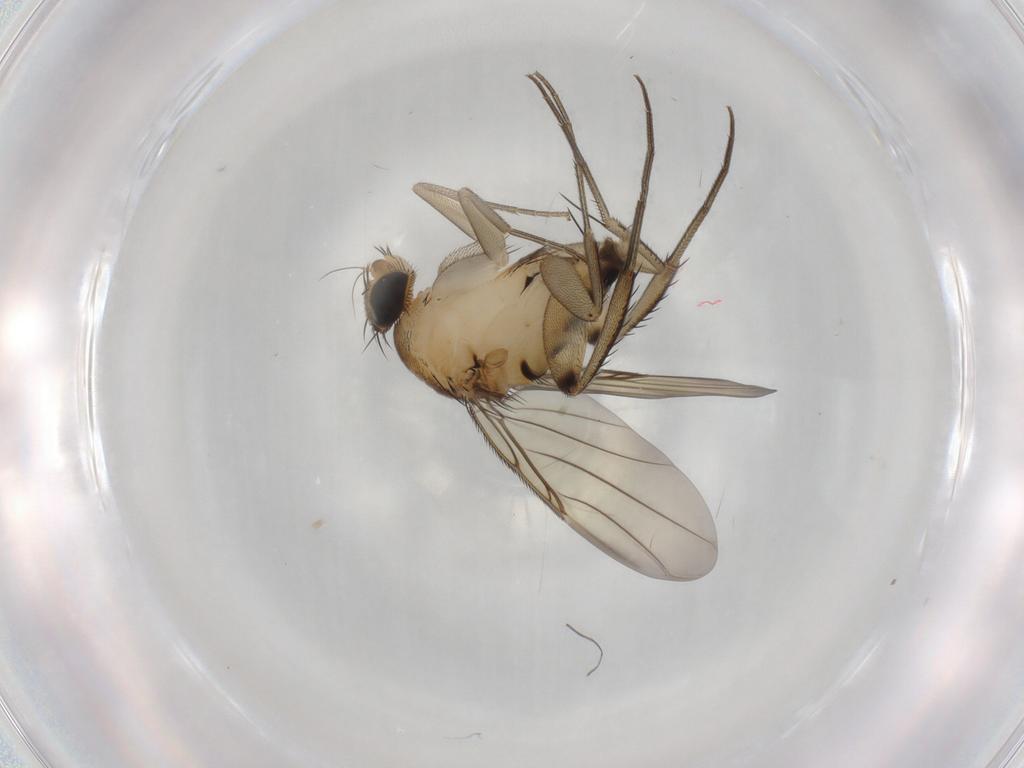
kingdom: Animalia
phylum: Arthropoda
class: Insecta
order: Diptera
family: Phoridae
